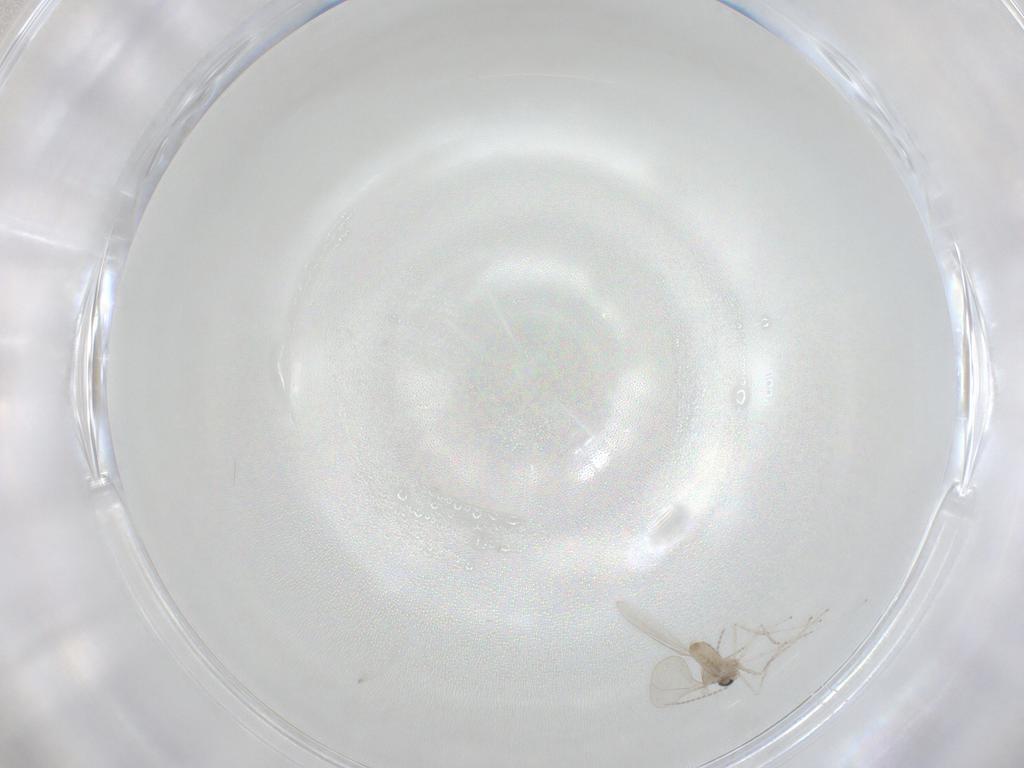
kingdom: Animalia
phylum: Arthropoda
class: Insecta
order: Diptera
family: Cecidomyiidae
